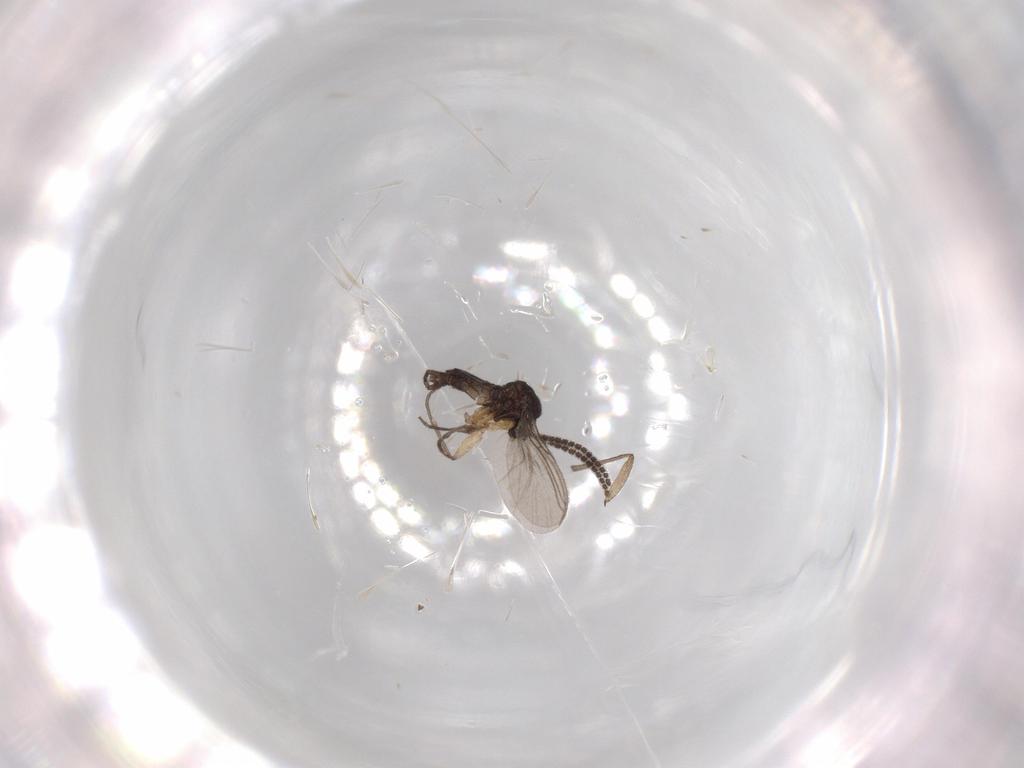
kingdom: Animalia
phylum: Arthropoda
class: Insecta
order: Diptera
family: Sciaridae
